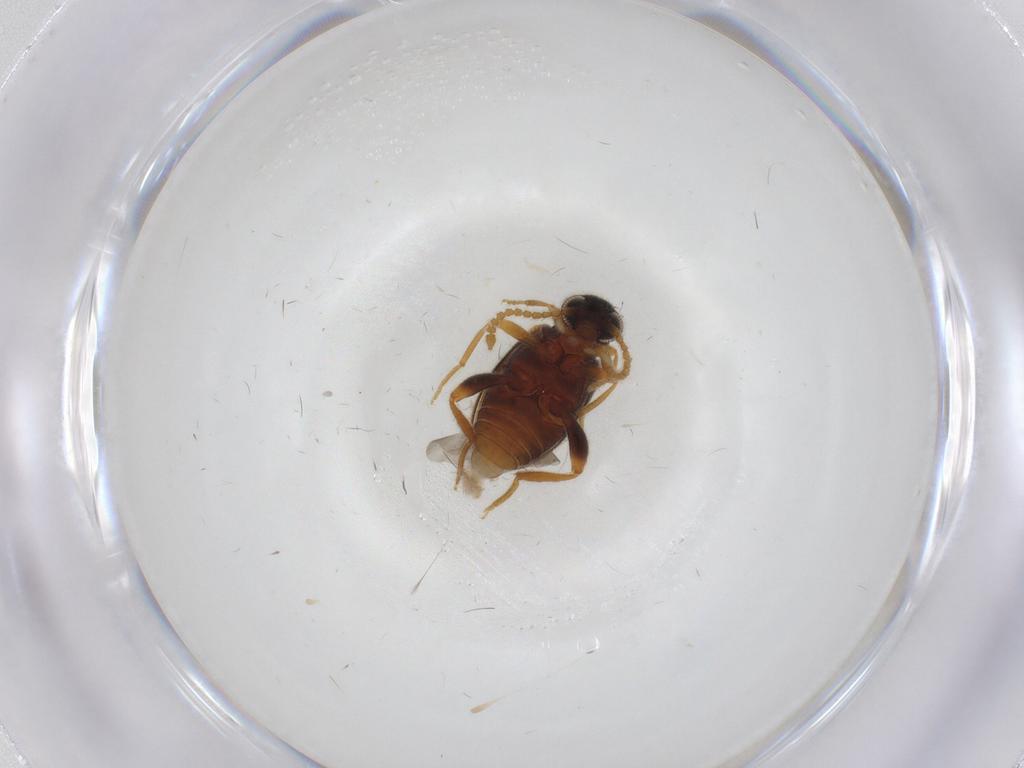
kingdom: Animalia
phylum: Arthropoda
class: Insecta
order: Coleoptera
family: Aderidae
